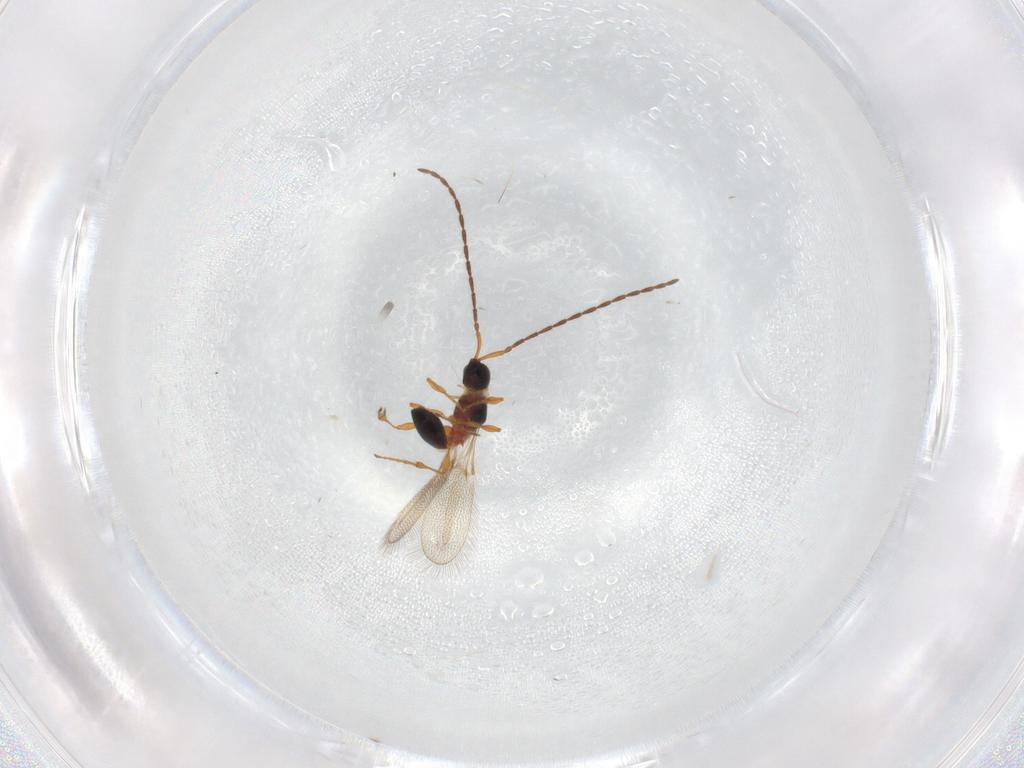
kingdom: Animalia
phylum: Arthropoda
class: Insecta
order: Hymenoptera
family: Diapriidae
